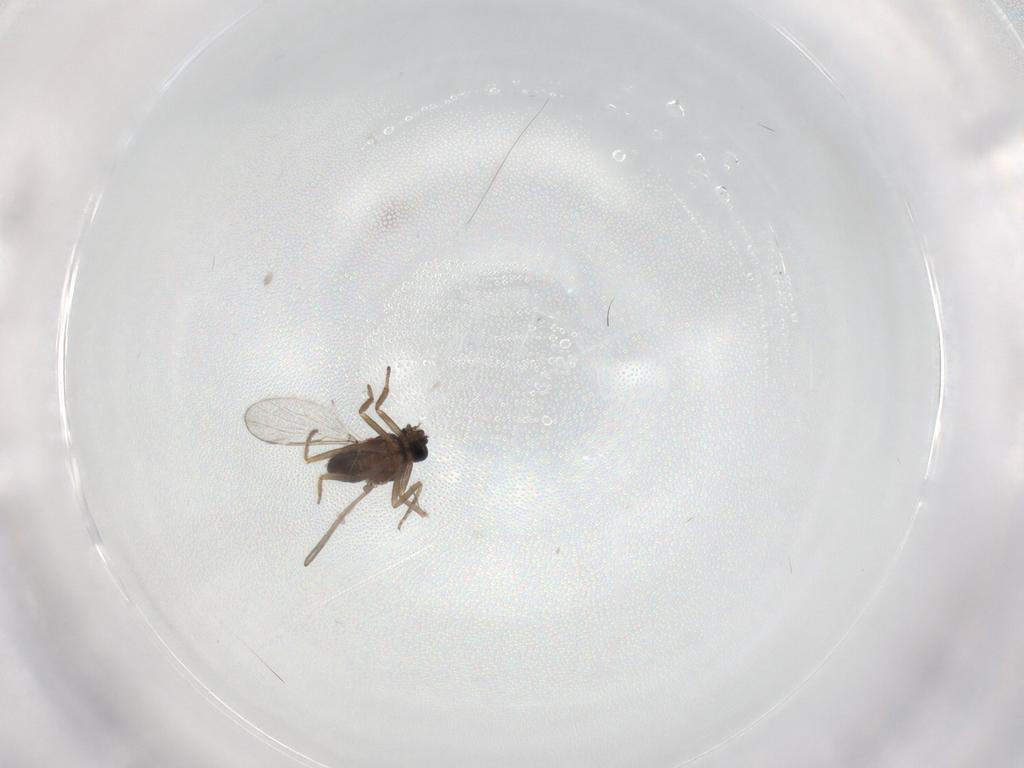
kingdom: Animalia
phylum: Arthropoda
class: Insecta
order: Diptera
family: Ceratopogonidae
